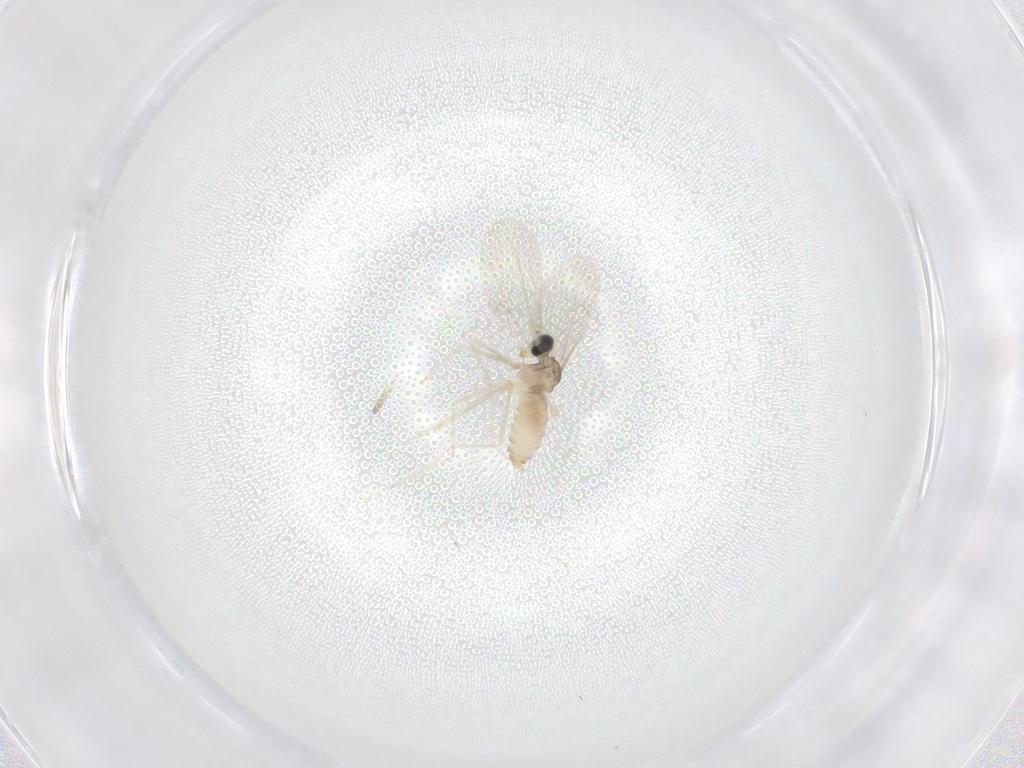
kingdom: Animalia
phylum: Arthropoda
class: Insecta
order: Diptera
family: Cecidomyiidae
